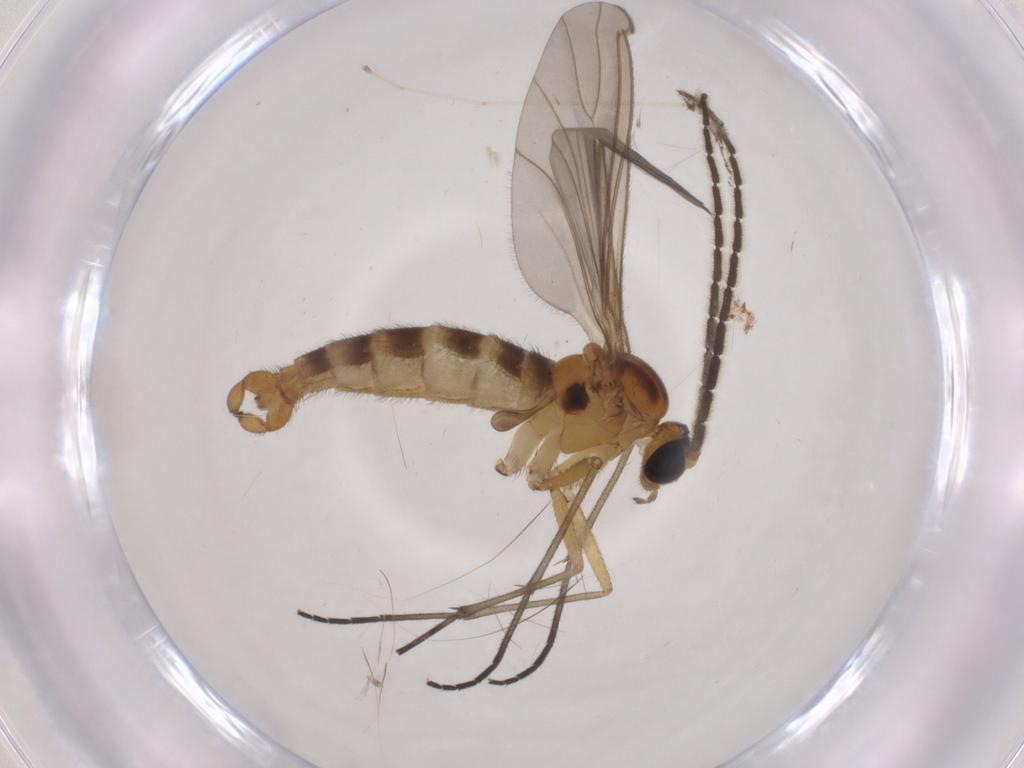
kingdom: Animalia
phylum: Arthropoda
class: Insecta
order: Diptera
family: Sciaridae
